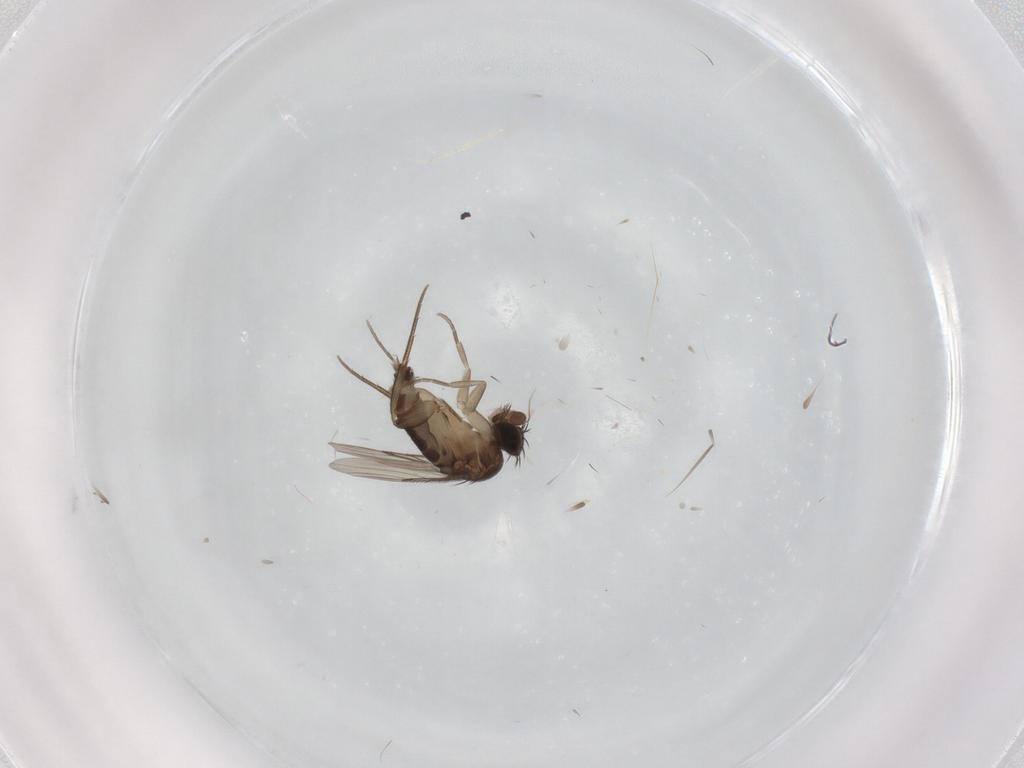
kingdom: Animalia
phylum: Arthropoda
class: Insecta
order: Diptera
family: Phoridae
